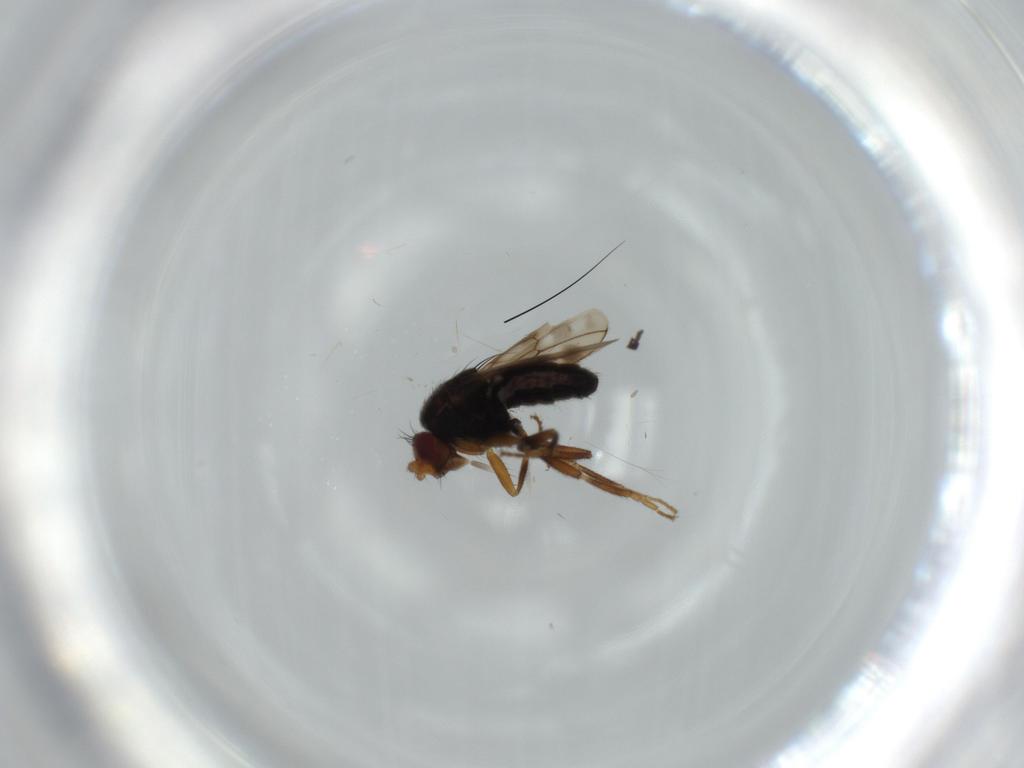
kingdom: Animalia
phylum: Arthropoda
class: Insecta
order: Diptera
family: Sphaeroceridae
